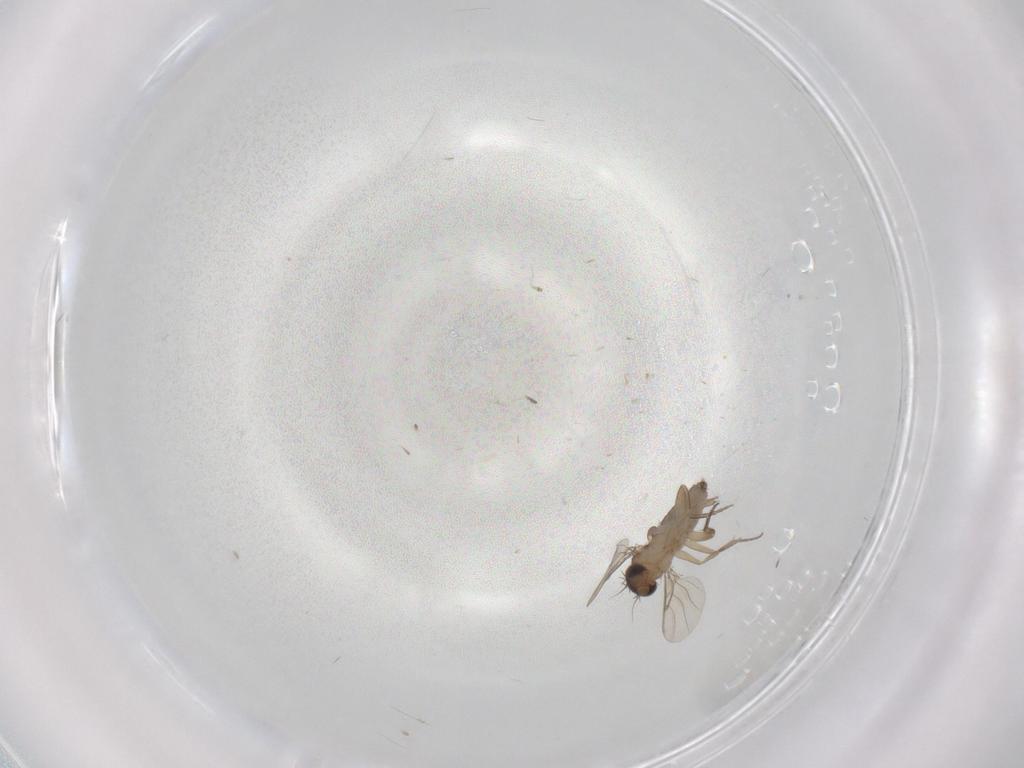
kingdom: Animalia
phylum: Arthropoda
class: Insecta
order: Diptera
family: Phoridae
